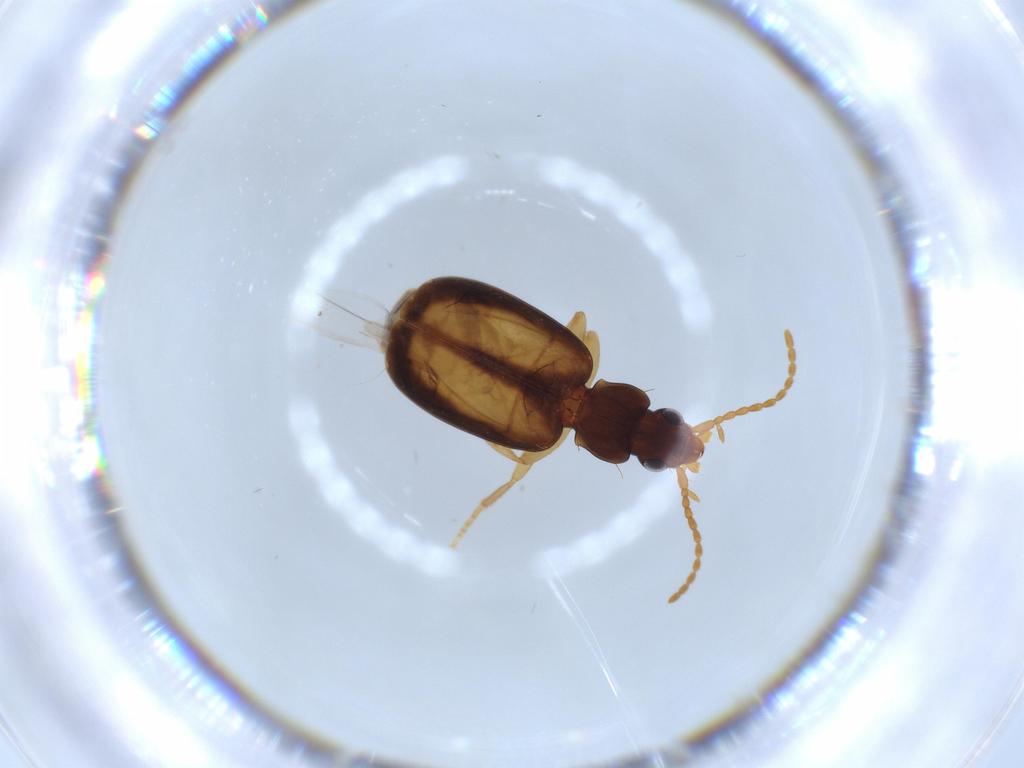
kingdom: Animalia
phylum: Arthropoda
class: Insecta
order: Coleoptera
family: Carabidae
